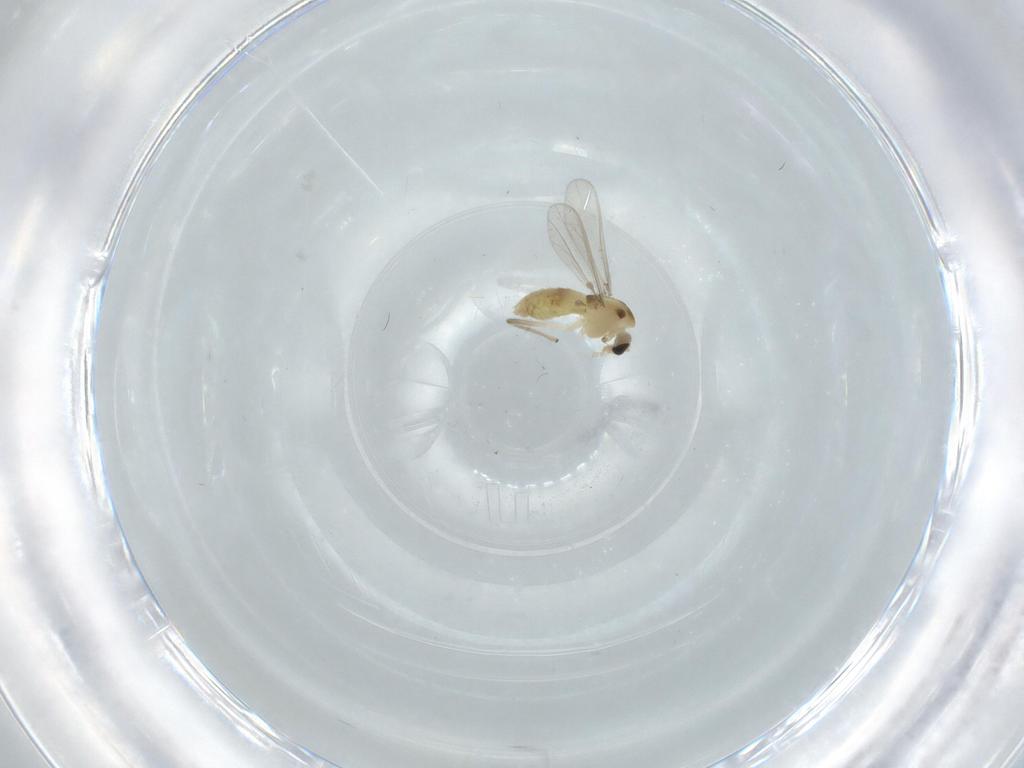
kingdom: Animalia
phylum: Arthropoda
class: Insecta
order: Diptera
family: Chironomidae
